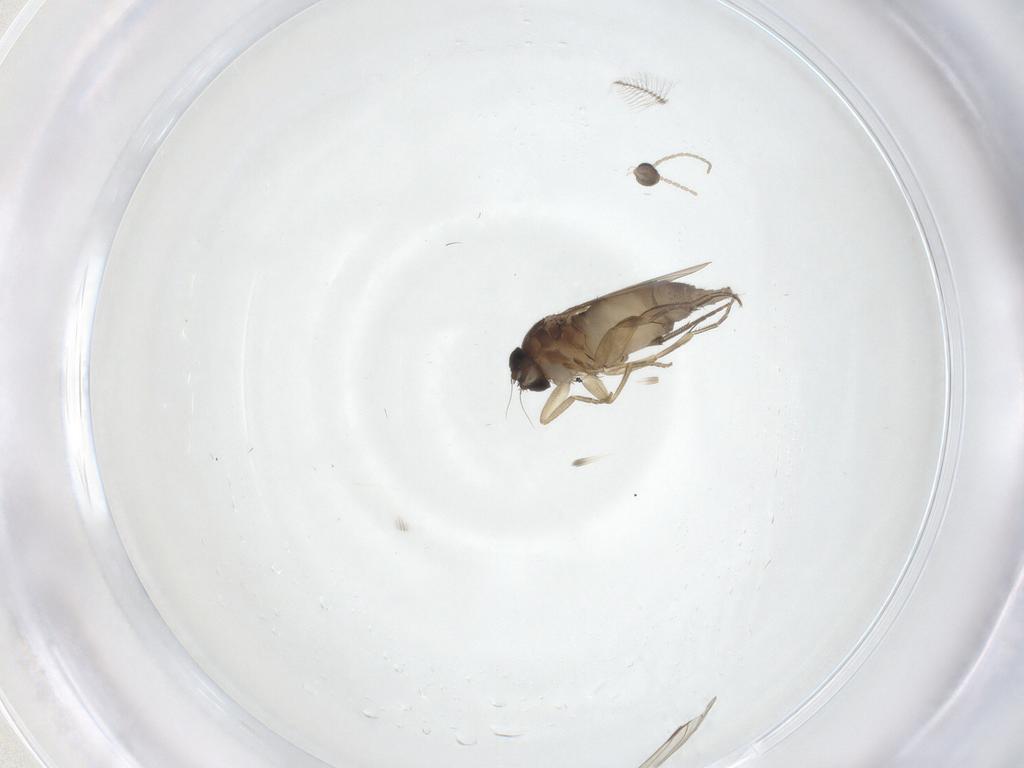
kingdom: Animalia
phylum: Arthropoda
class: Insecta
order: Diptera
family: Phoridae
